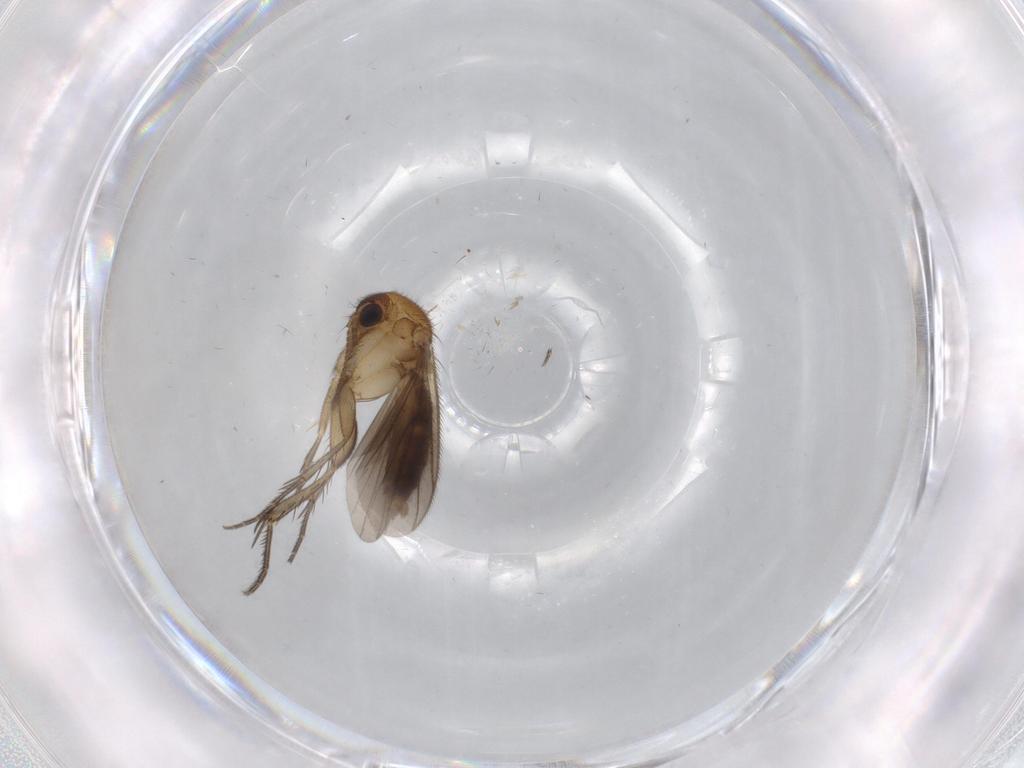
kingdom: Animalia
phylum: Arthropoda
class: Insecta
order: Diptera
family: Mycetophilidae
